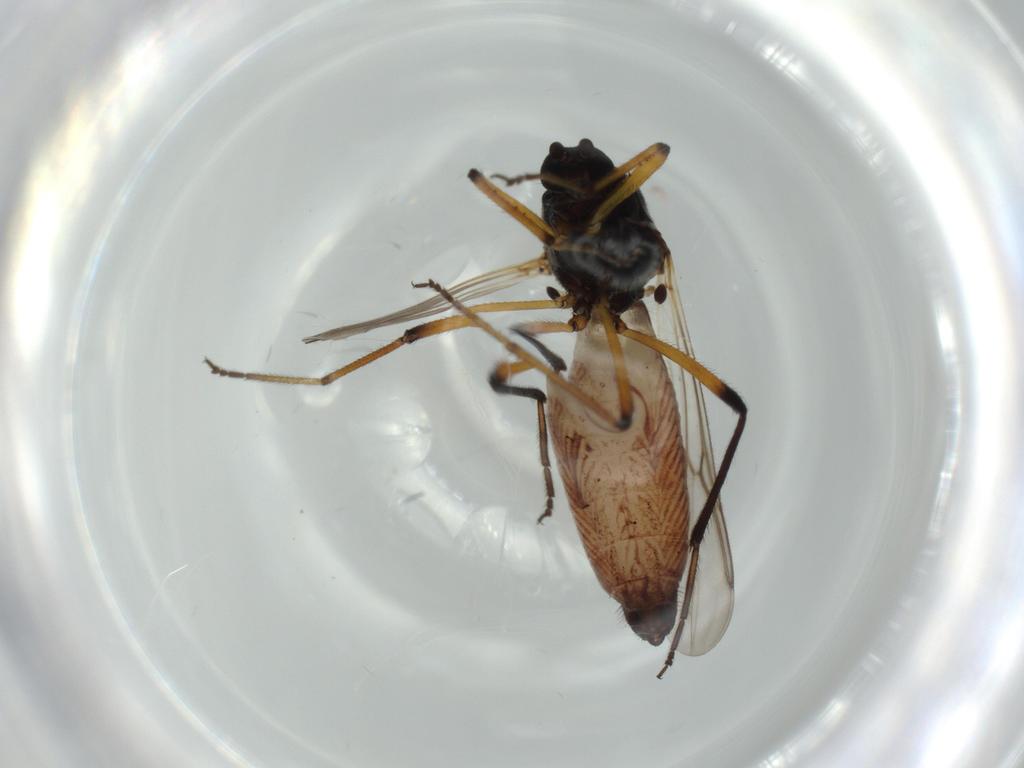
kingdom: Animalia
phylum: Arthropoda
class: Insecta
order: Diptera
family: Ceratopogonidae
